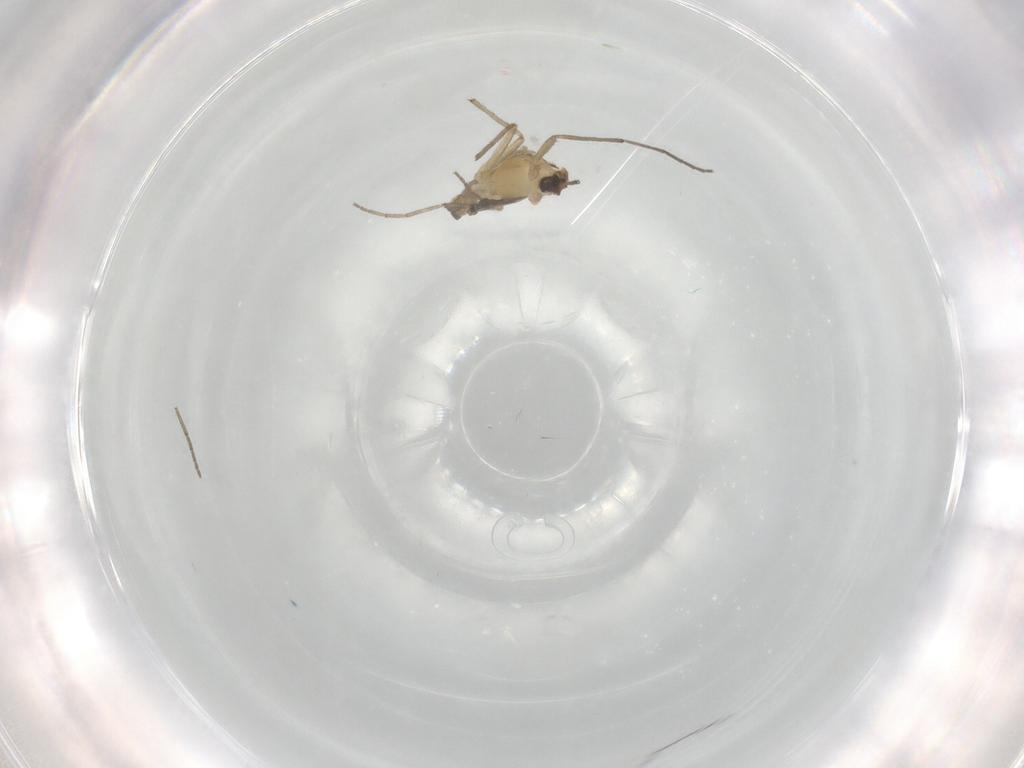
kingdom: Animalia
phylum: Arthropoda
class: Insecta
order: Diptera
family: Chironomidae
